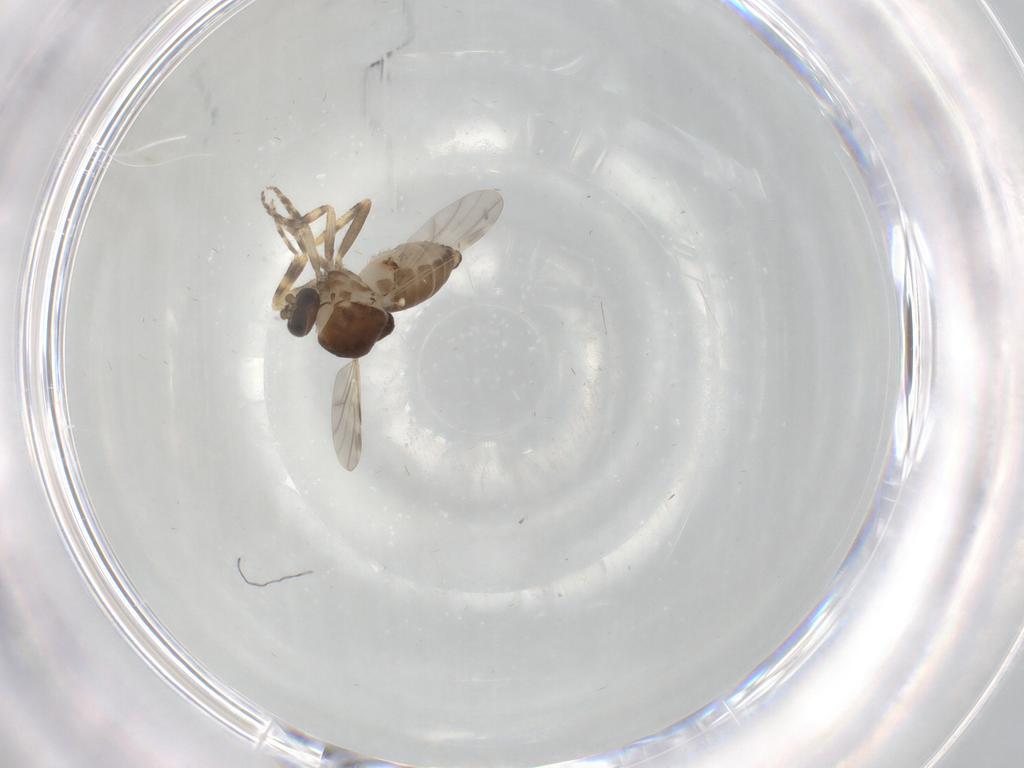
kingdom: Animalia
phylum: Arthropoda
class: Insecta
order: Diptera
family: Ceratopogonidae
